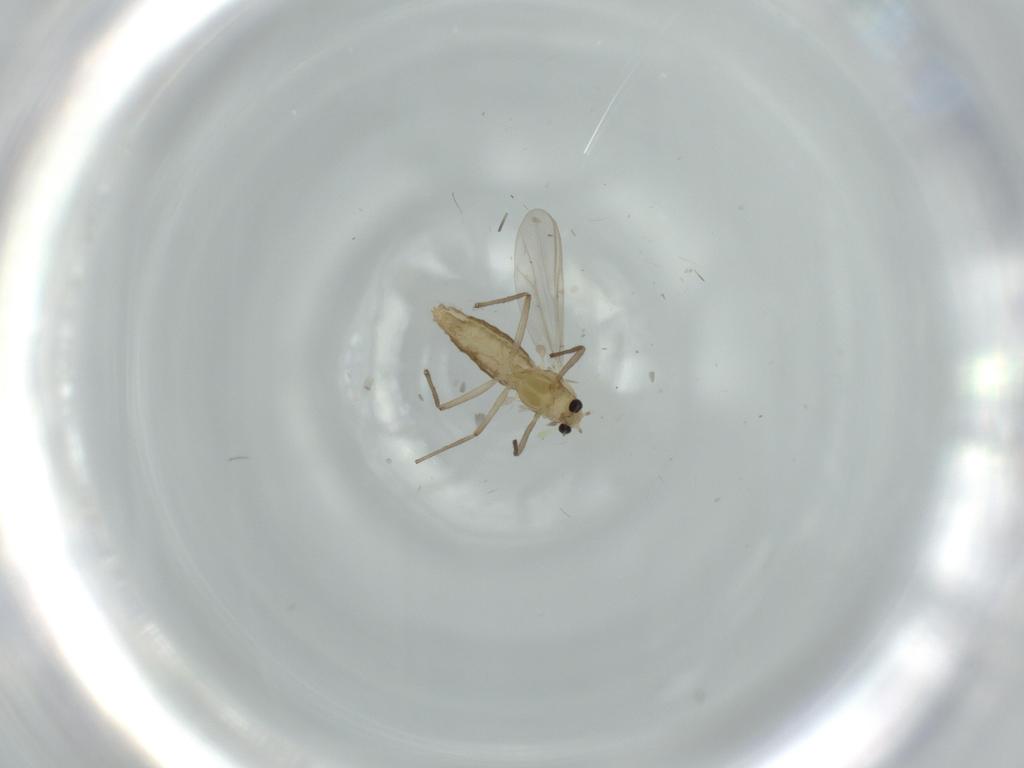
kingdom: Animalia
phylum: Arthropoda
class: Insecta
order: Diptera
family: Chironomidae
